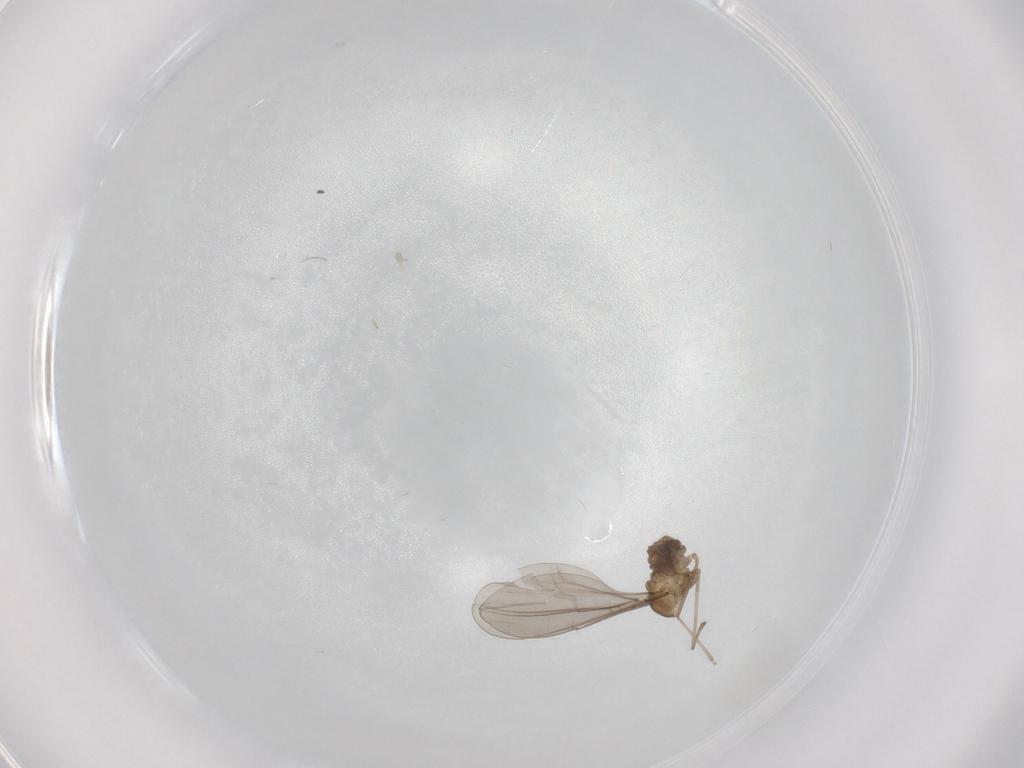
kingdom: Animalia
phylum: Arthropoda
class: Insecta
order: Diptera
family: Cecidomyiidae
